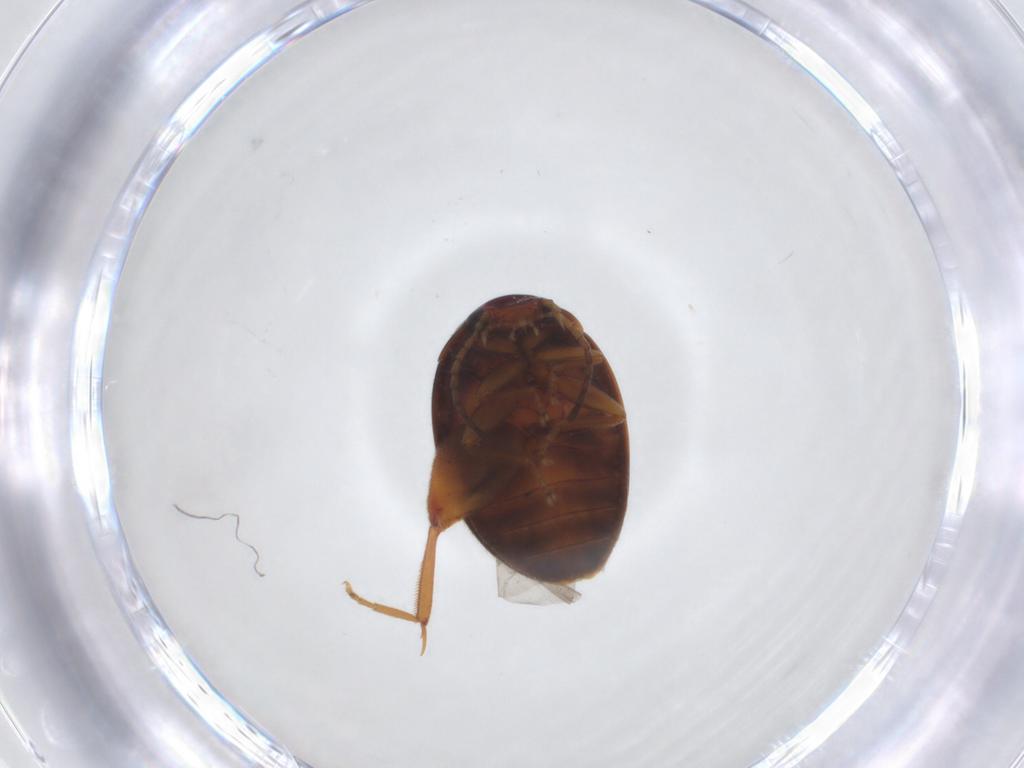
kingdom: Animalia
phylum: Arthropoda
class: Insecta
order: Coleoptera
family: Scirtidae
